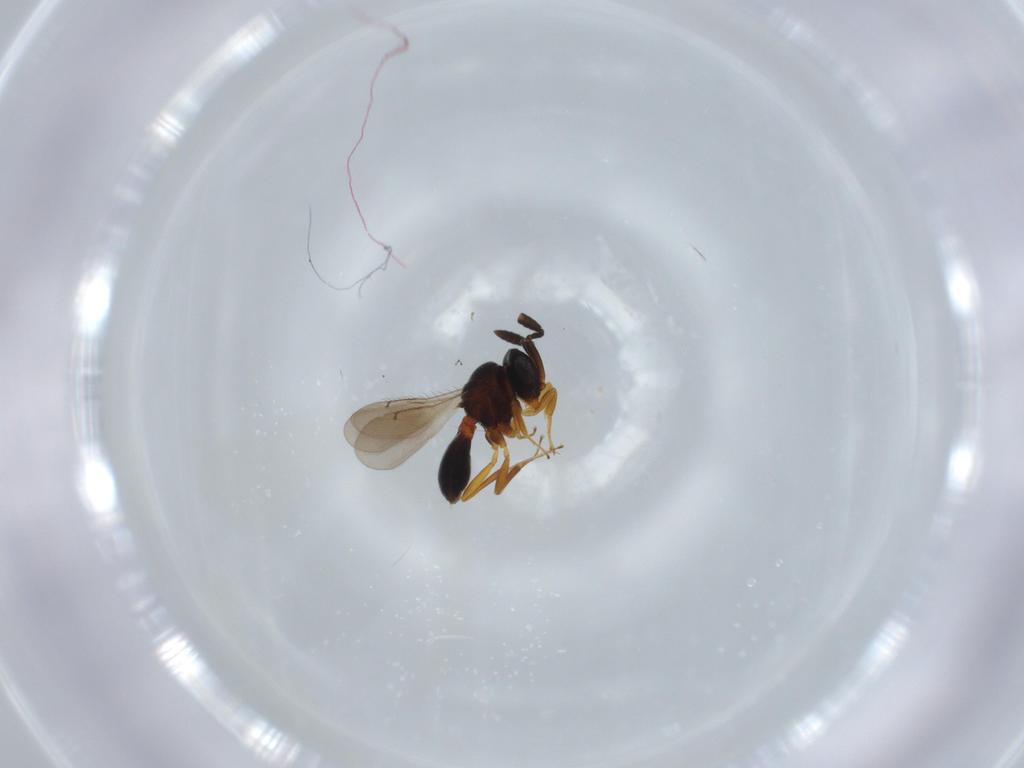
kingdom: Animalia
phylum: Arthropoda
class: Insecta
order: Hymenoptera
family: Scelionidae
